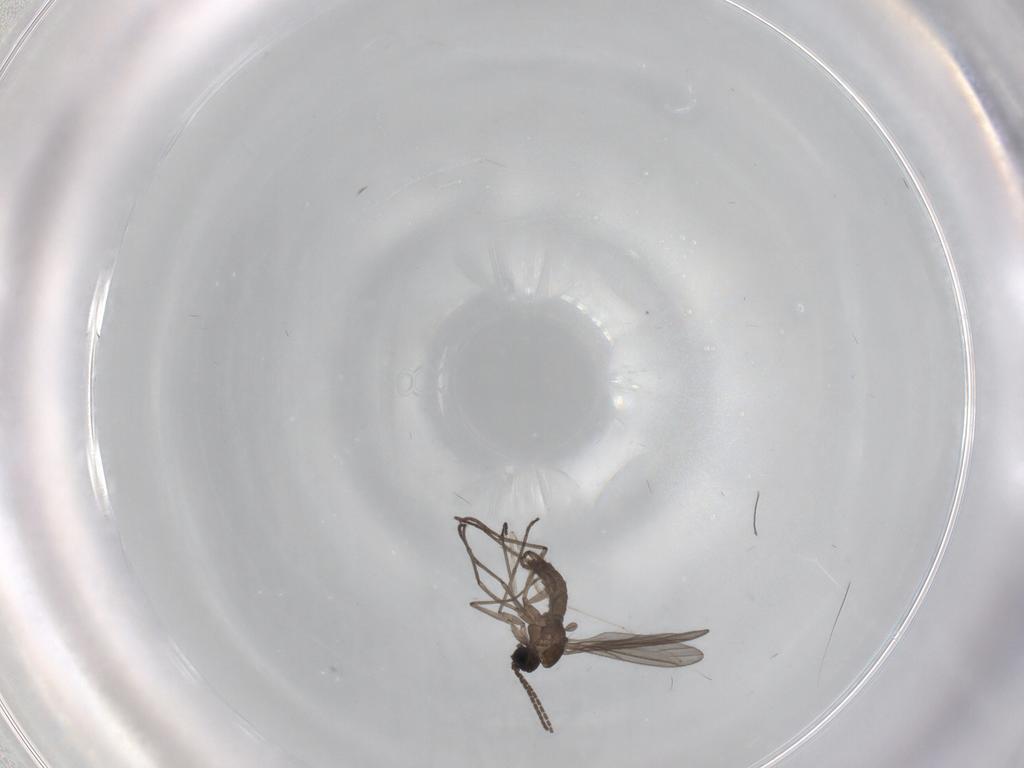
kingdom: Animalia
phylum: Arthropoda
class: Insecta
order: Diptera
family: Sciaridae
